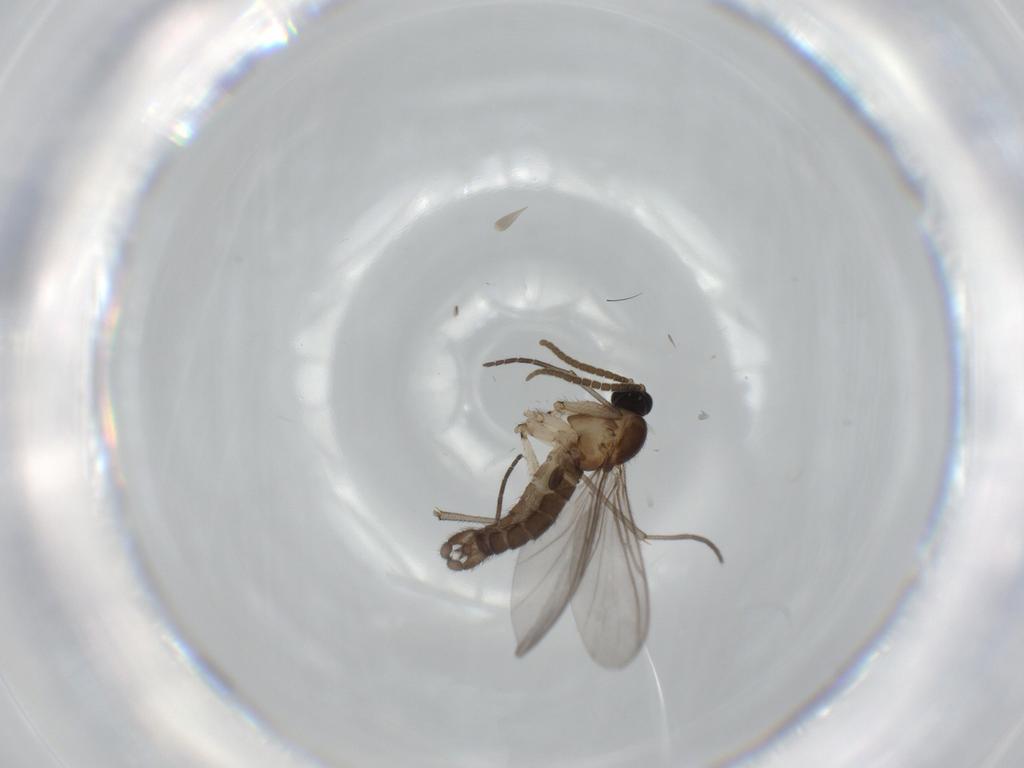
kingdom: Animalia
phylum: Arthropoda
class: Insecta
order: Diptera
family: Sciaridae
